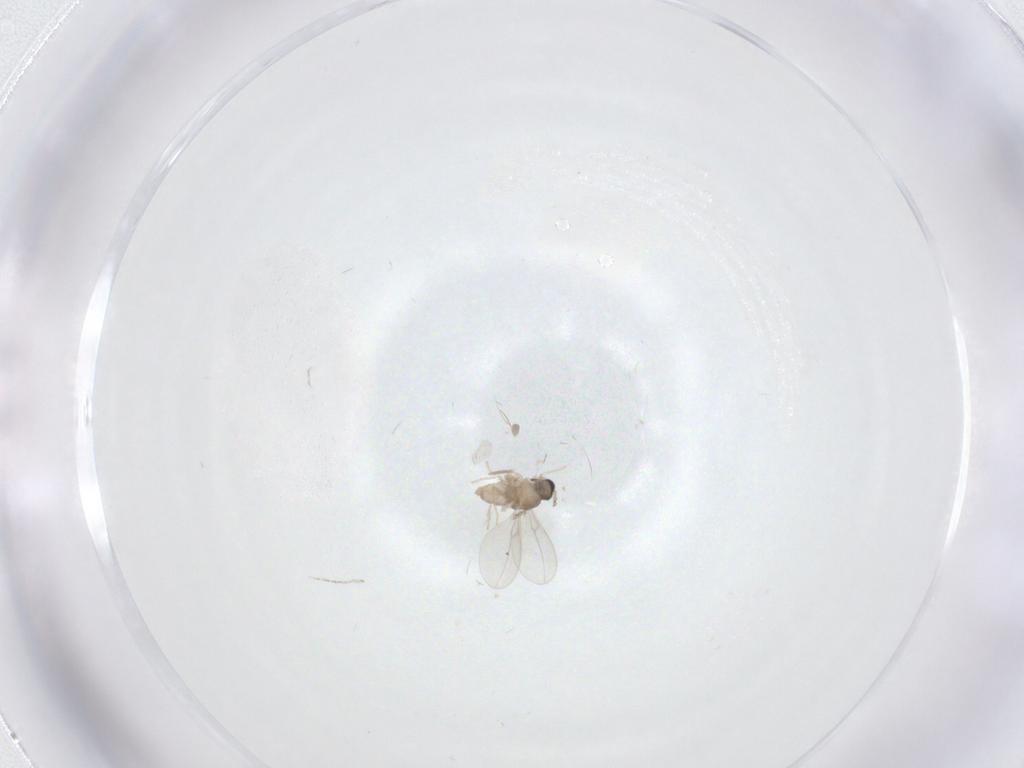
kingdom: Animalia
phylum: Arthropoda
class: Insecta
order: Diptera
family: Cecidomyiidae
